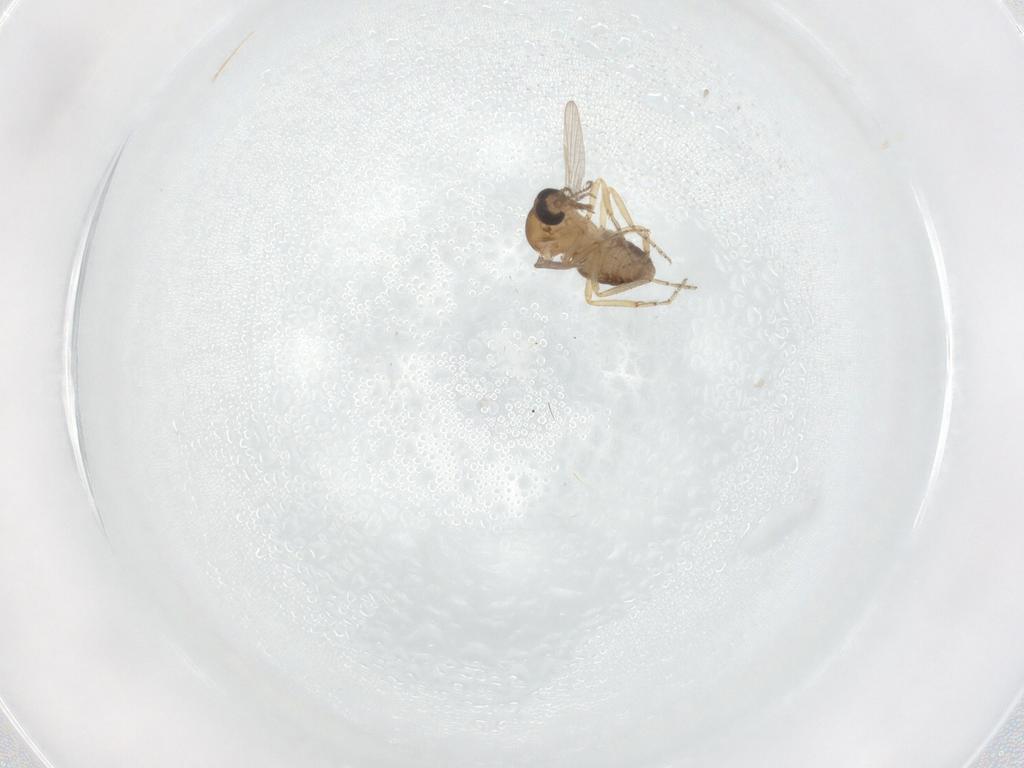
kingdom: Animalia
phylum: Arthropoda
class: Insecta
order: Diptera
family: Ceratopogonidae
